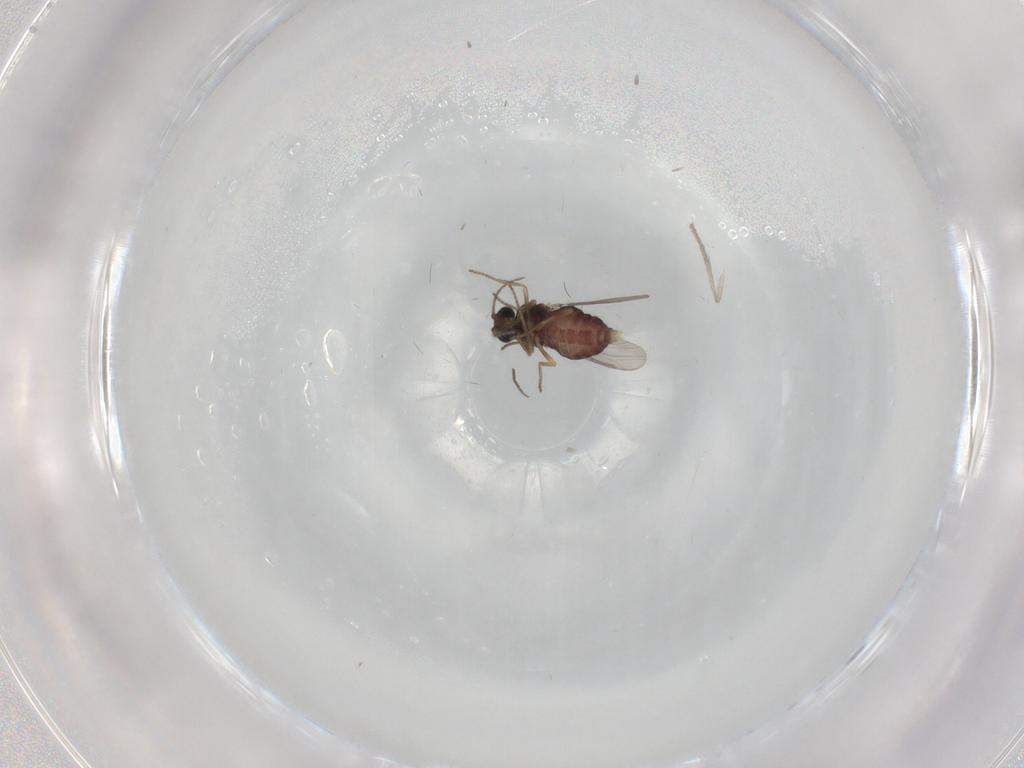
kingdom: Animalia
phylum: Arthropoda
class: Insecta
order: Diptera
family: Ceratopogonidae
